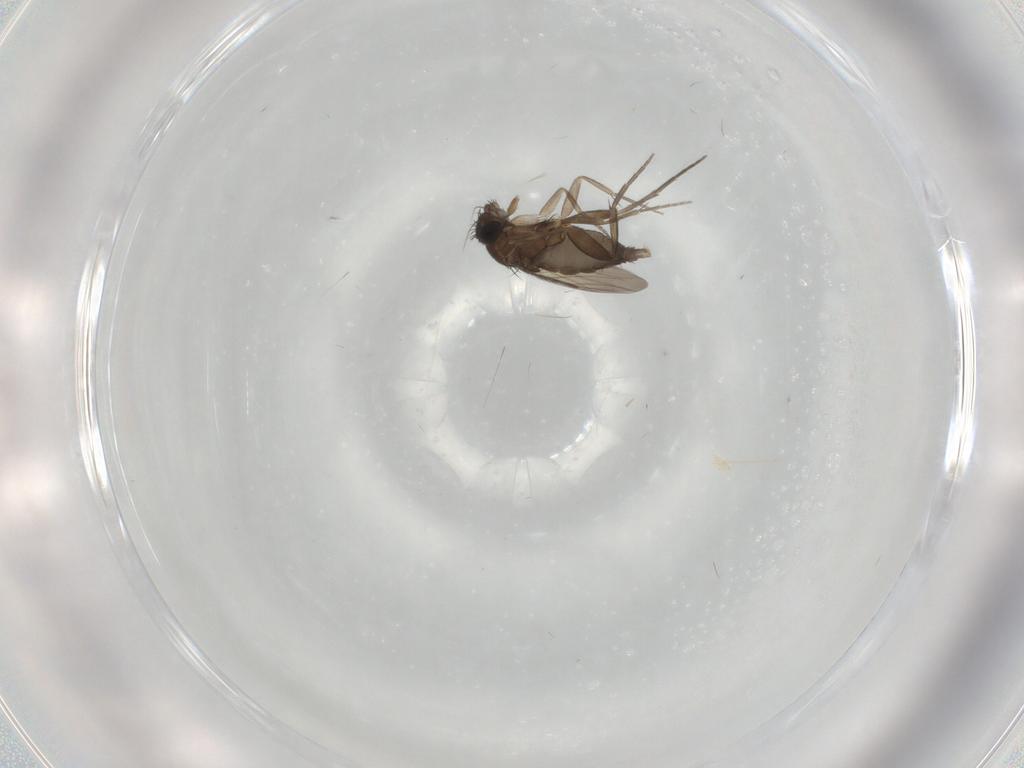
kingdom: Animalia
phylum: Arthropoda
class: Insecta
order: Diptera
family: Phoridae
